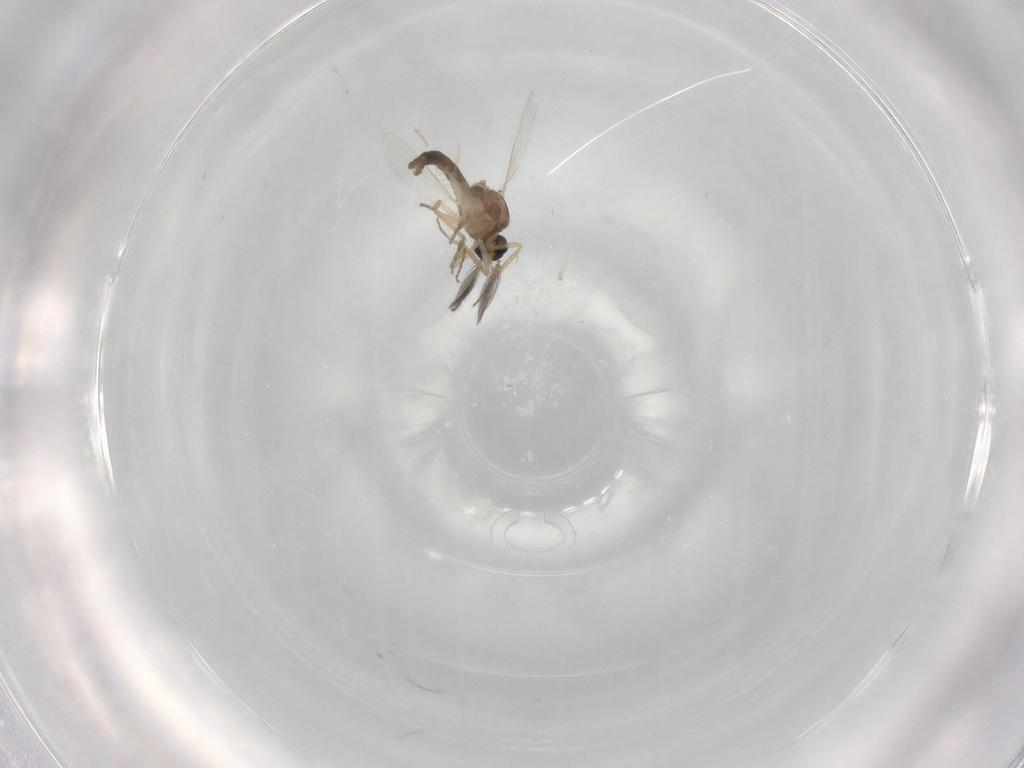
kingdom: Animalia
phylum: Arthropoda
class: Insecta
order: Diptera
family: Ceratopogonidae
